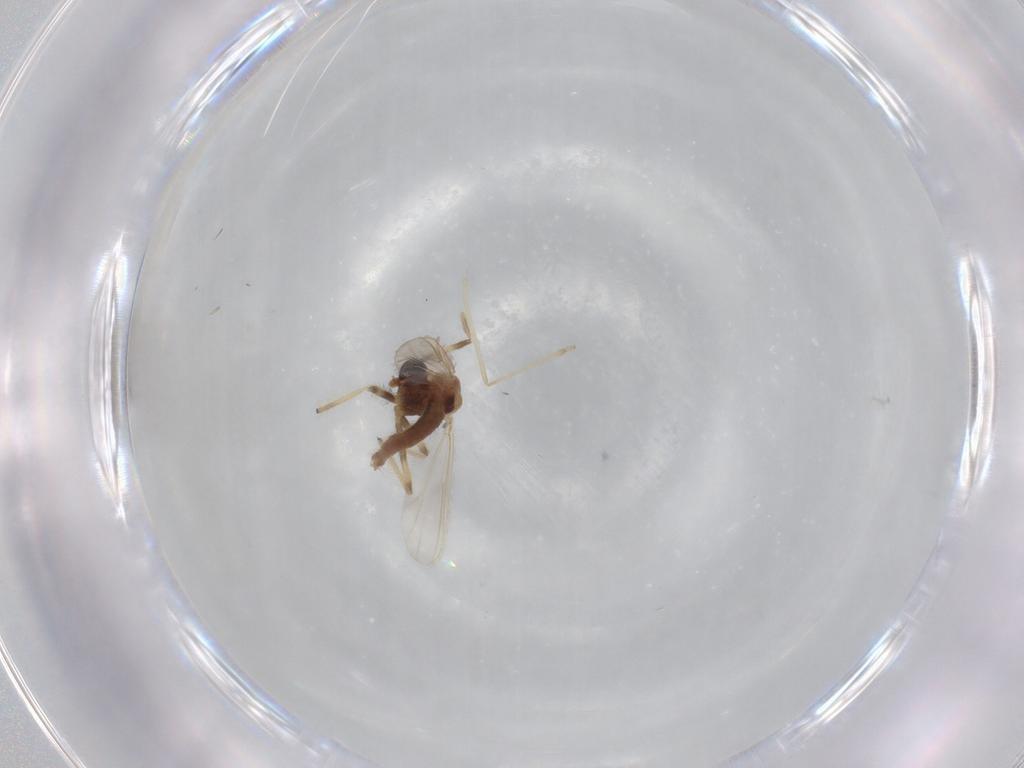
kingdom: Animalia
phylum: Arthropoda
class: Insecta
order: Diptera
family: Chironomidae
